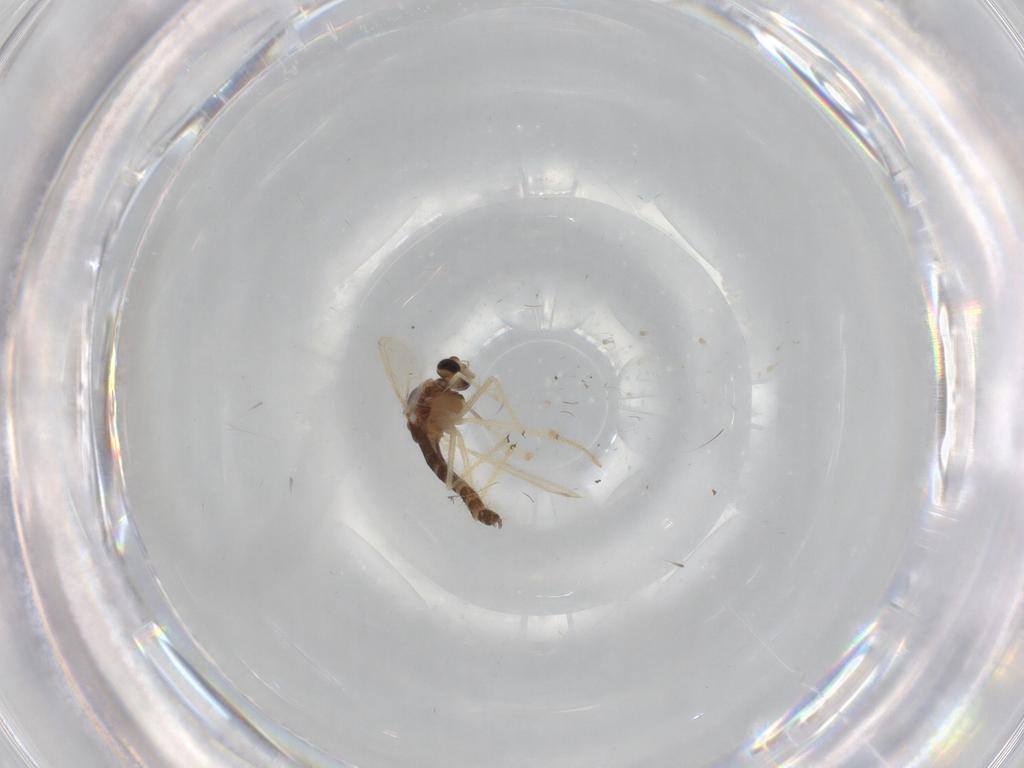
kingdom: Animalia
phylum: Arthropoda
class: Insecta
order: Diptera
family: Chironomidae
